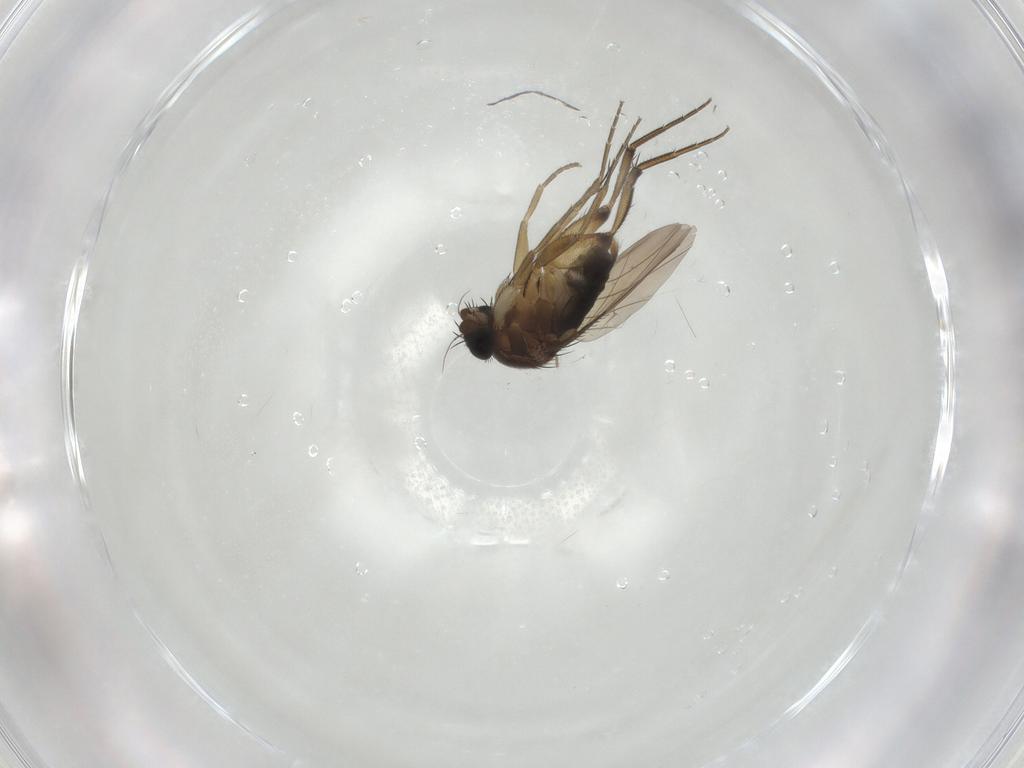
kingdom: Animalia
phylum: Arthropoda
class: Insecta
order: Diptera
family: Phoridae
